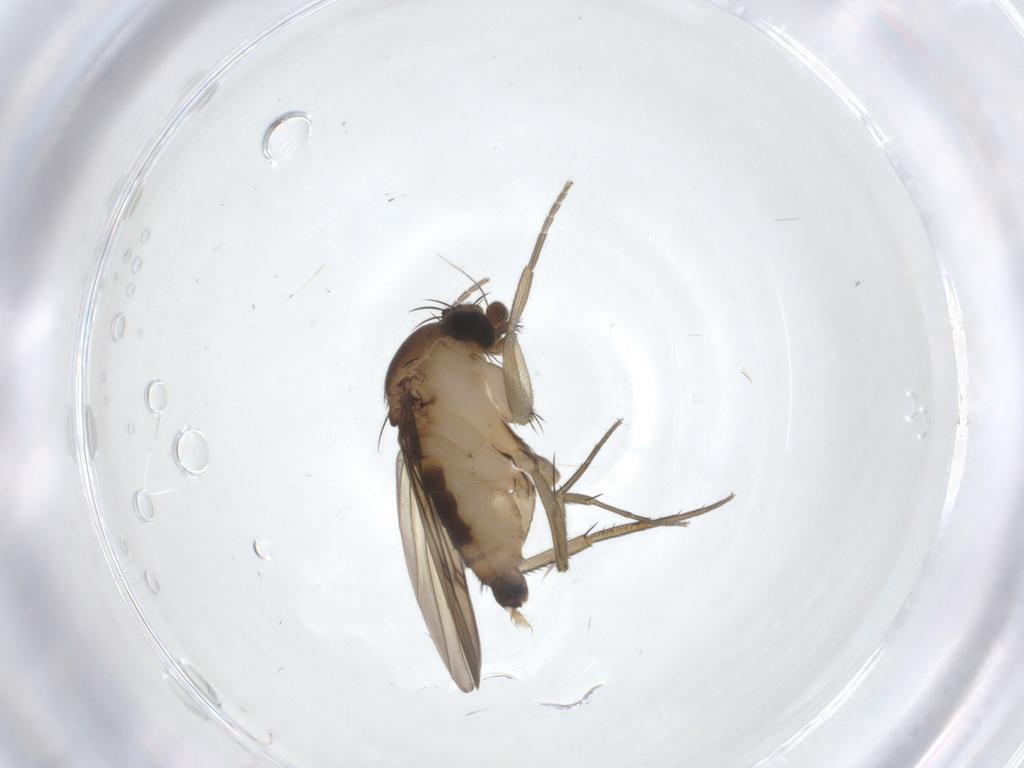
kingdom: Animalia
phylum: Arthropoda
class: Insecta
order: Diptera
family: Phoridae
